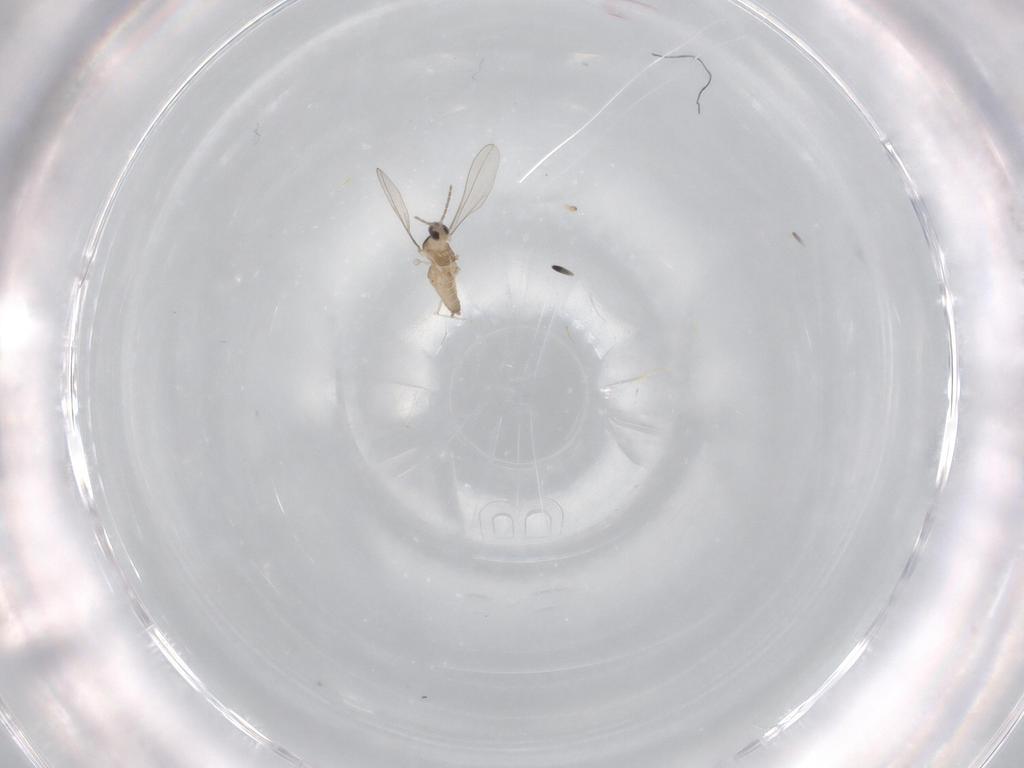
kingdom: Animalia
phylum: Arthropoda
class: Insecta
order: Diptera
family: Cecidomyiidae
